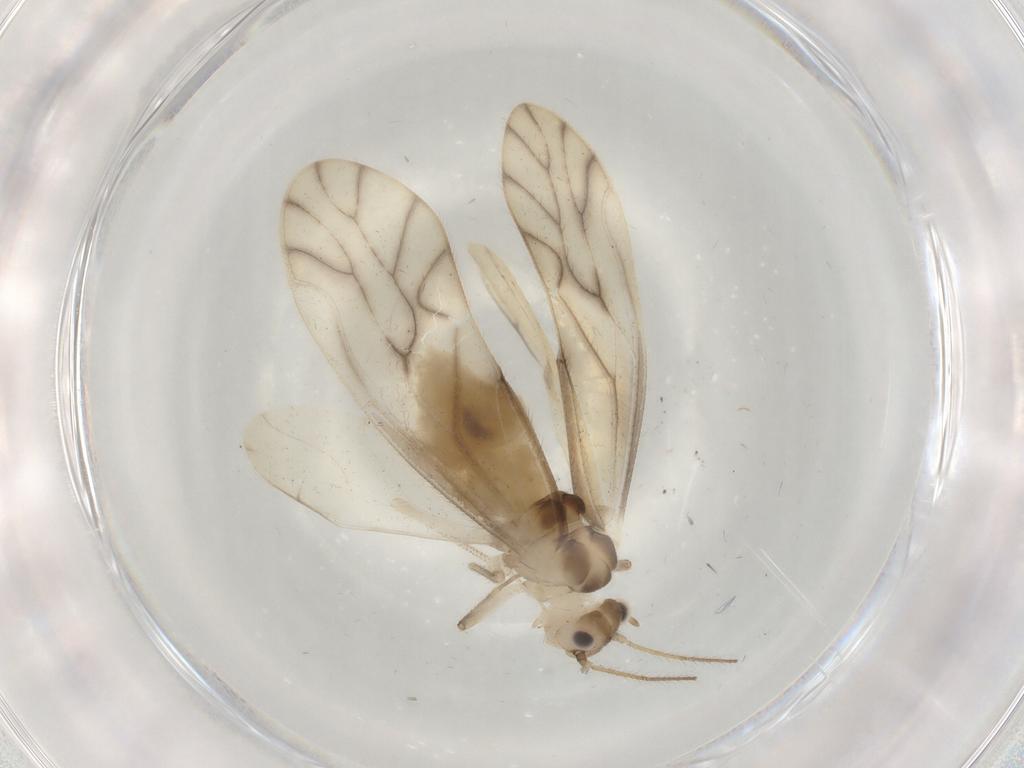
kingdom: Animalia
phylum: Arthropoda
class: Insecta
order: Psocodea
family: Caeciliusidae
